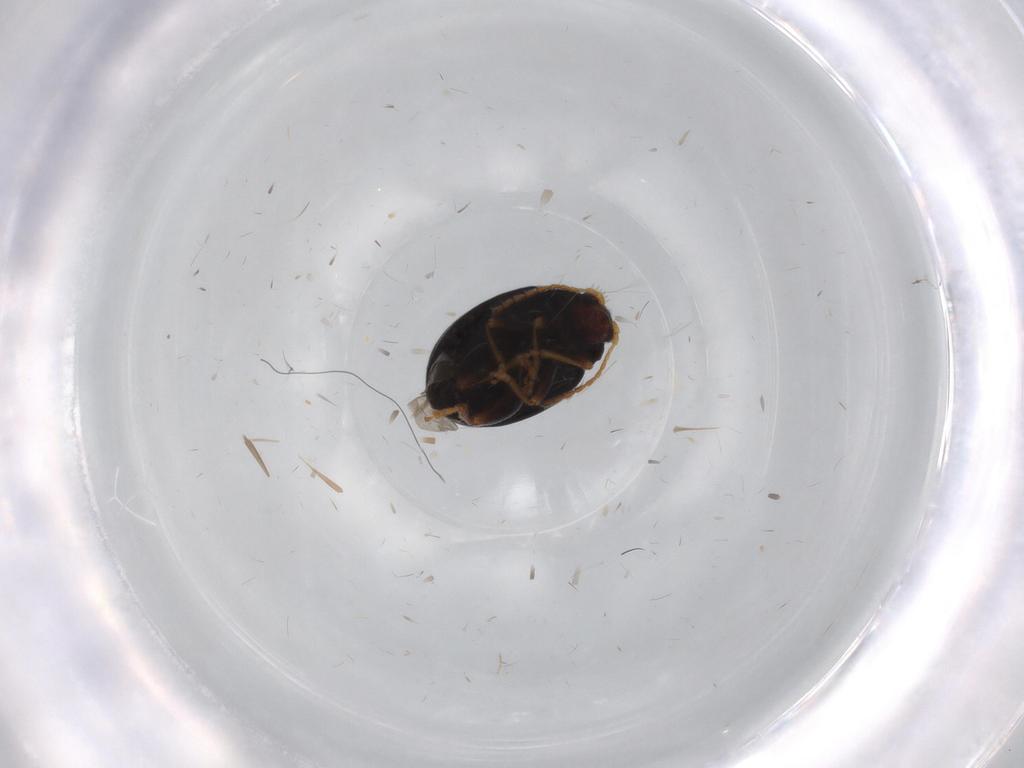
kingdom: Animalia
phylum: Arthropoda
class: Insecta
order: Coleoptera
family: Chrysomelidae
